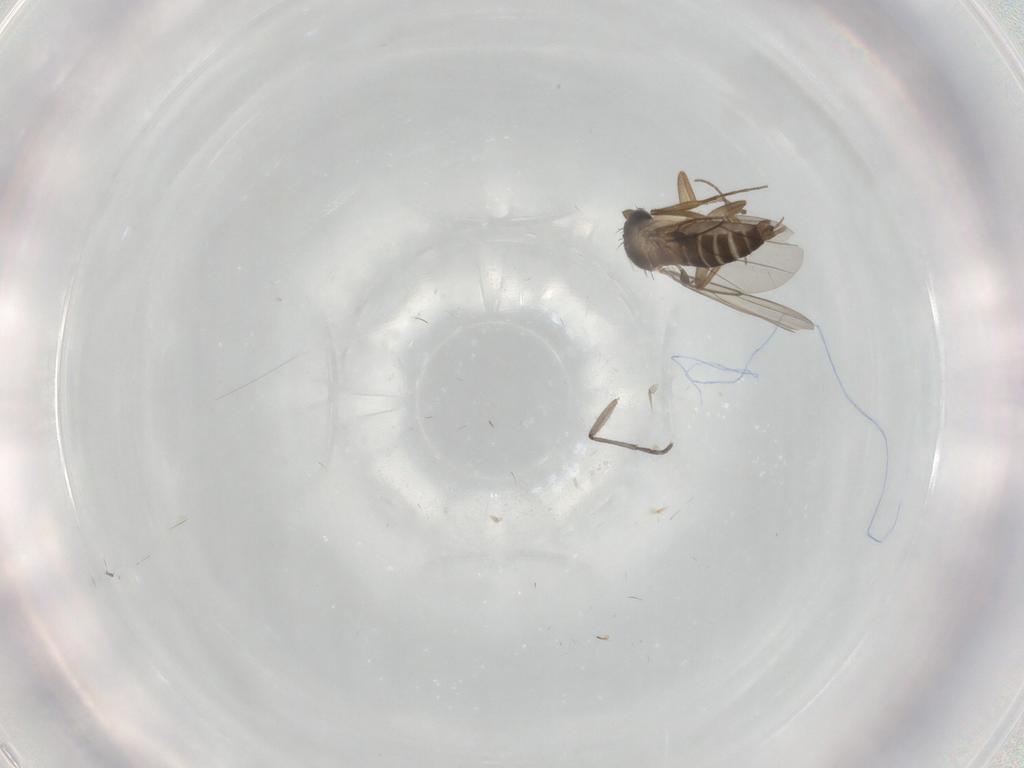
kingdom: Animalia
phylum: Arthropoda
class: Insecta
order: Diptera
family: Sciaridae
